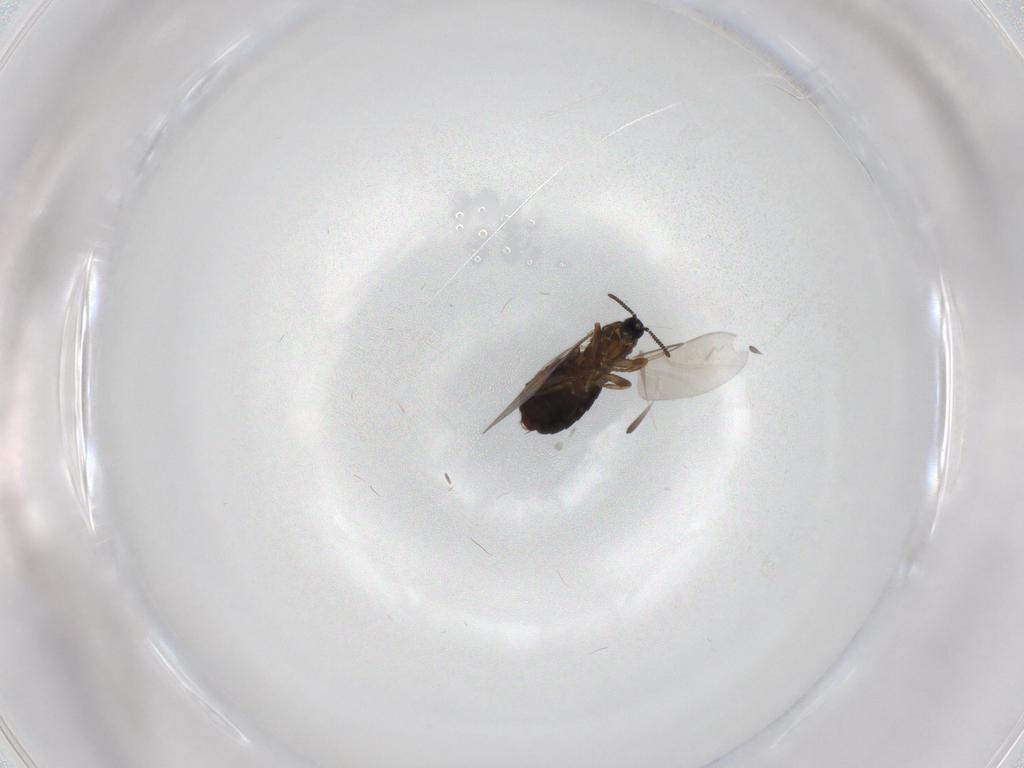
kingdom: Animalia
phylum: Arthropoda
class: Insecta
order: Diptera
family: Scatopsidae
